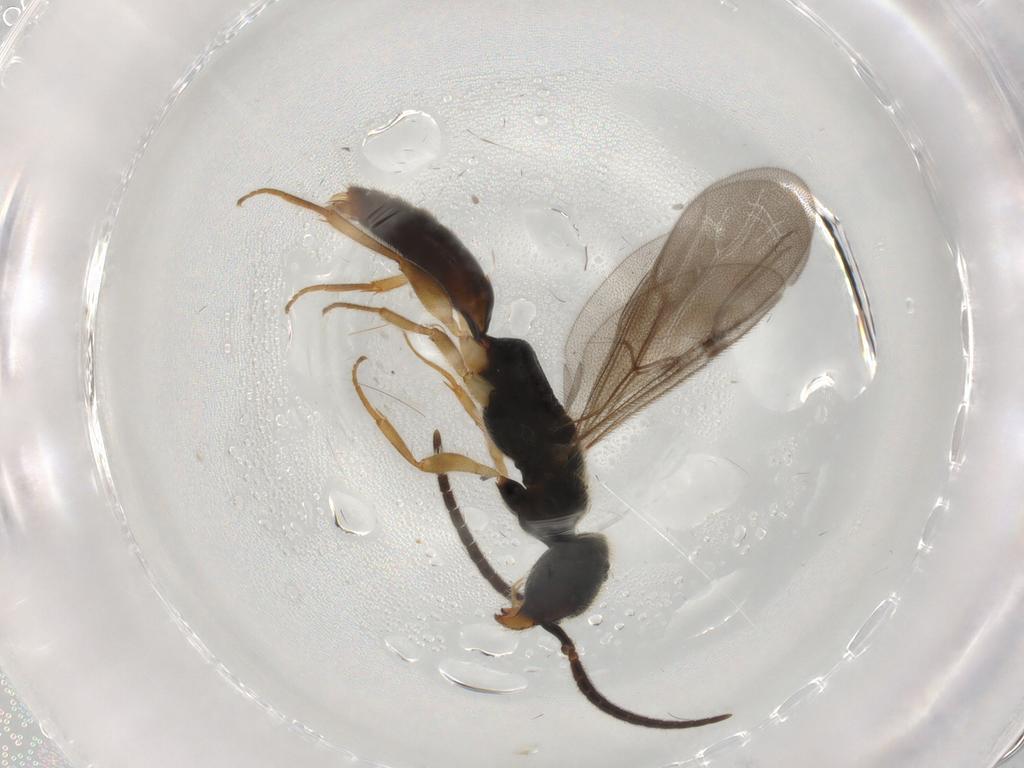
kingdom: Animalia
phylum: Arthropoda
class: Insecta
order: Hymenoptera
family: Bethylidae
